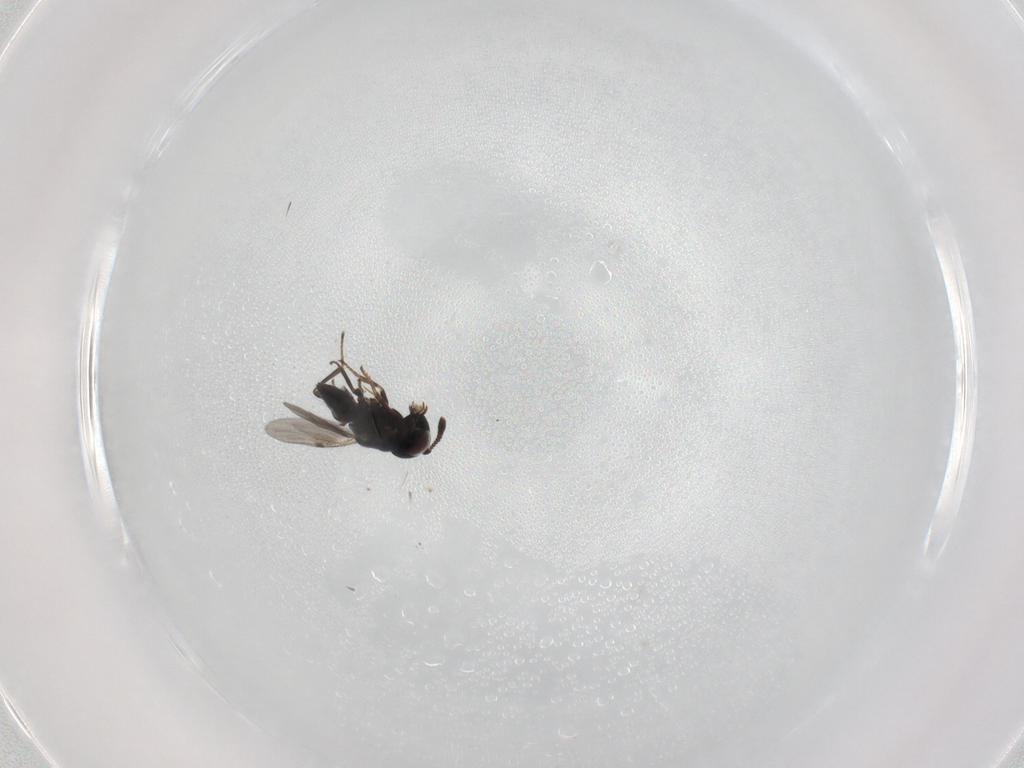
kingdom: Animalia
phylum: Arthropoda
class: Insecta
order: Hymenoptera
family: Encyrtidae
